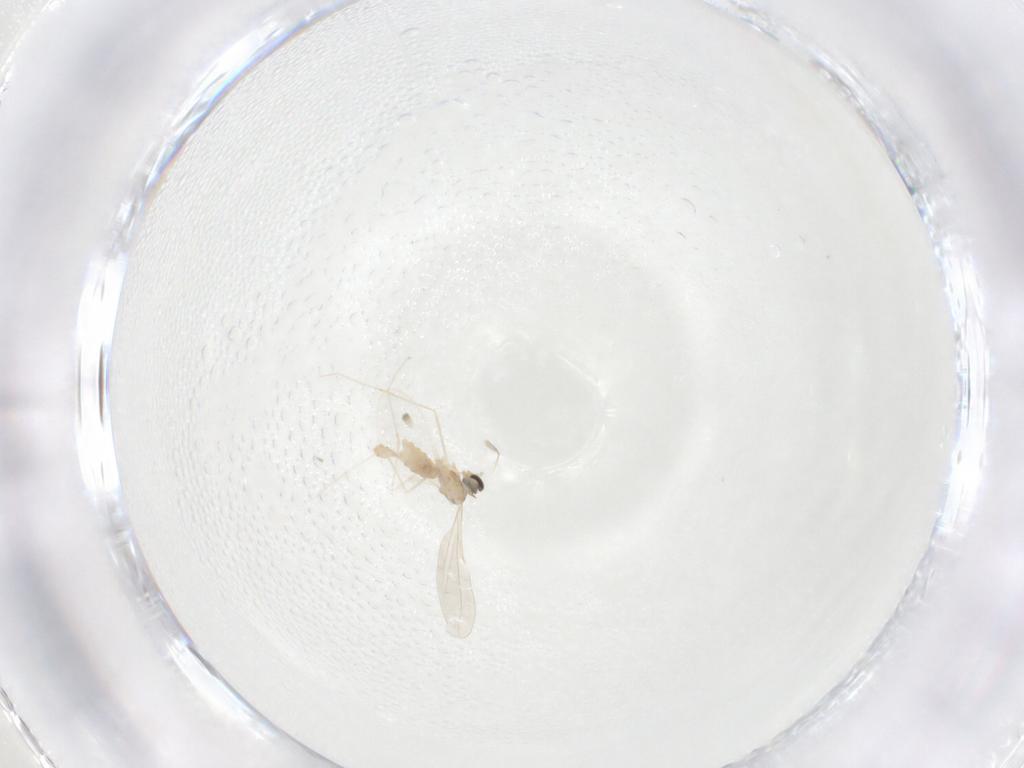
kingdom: Animalia
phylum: Arthropoda
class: Insecta
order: Diptera
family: Cecidomyiidae
